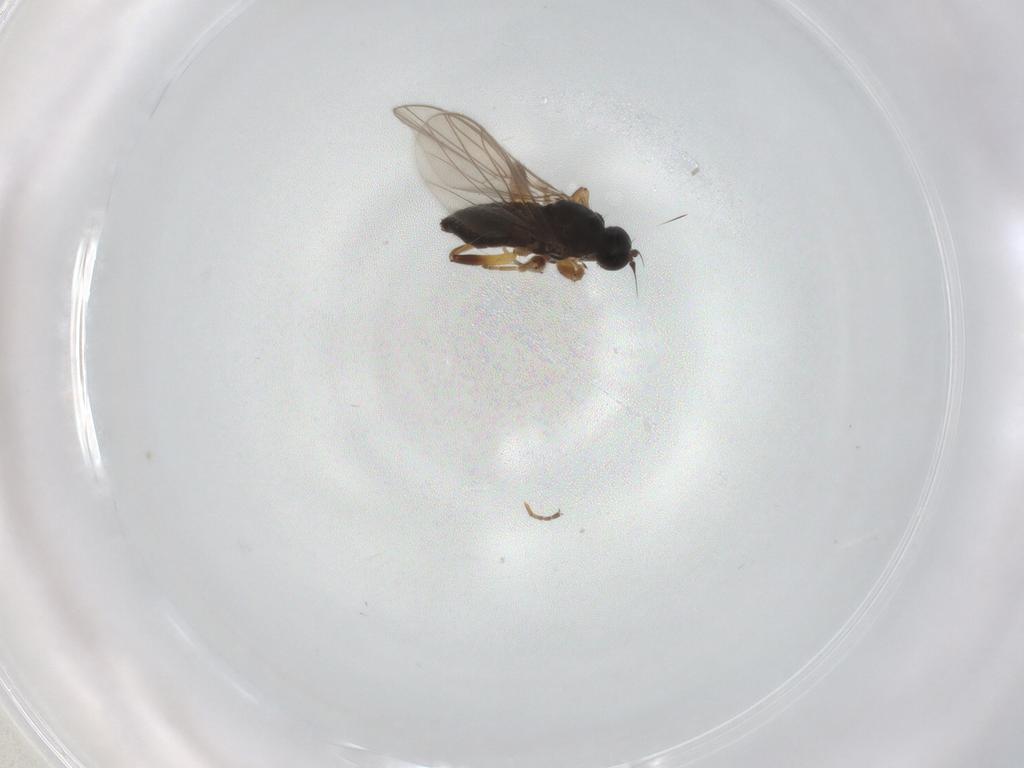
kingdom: Animalia
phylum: Arthropoda
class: Insecta
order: Diptera
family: Hybotidae
